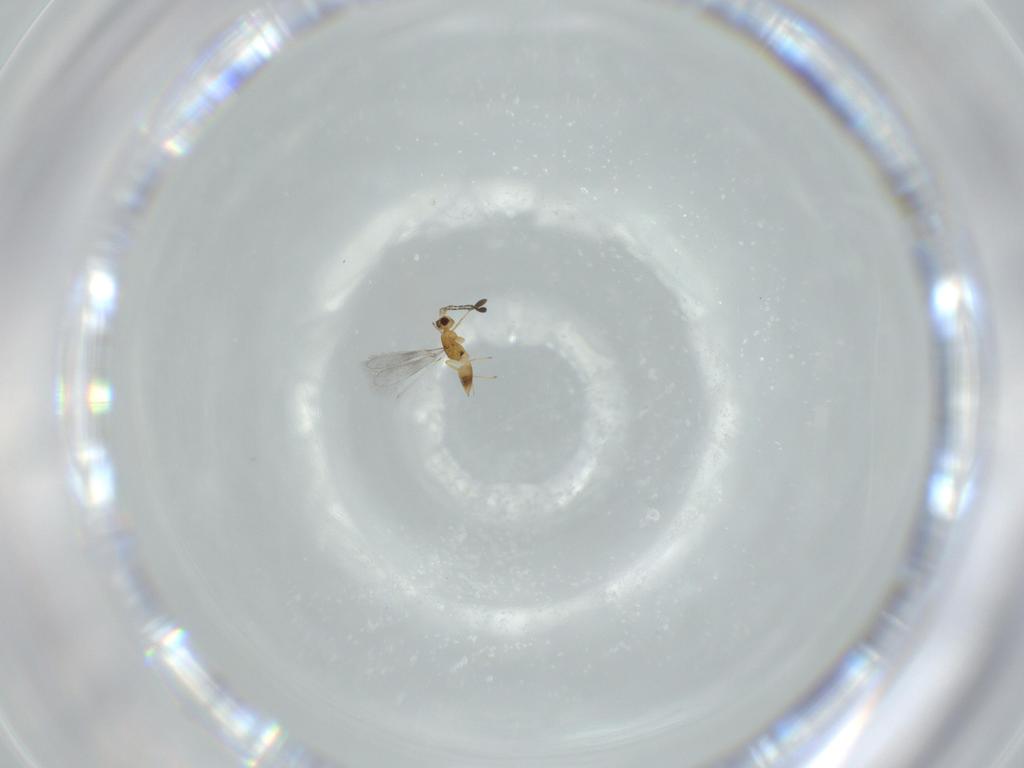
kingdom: Animalia
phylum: Arthropoda
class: Insecta
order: Hymenoptera
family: Mymaridae
